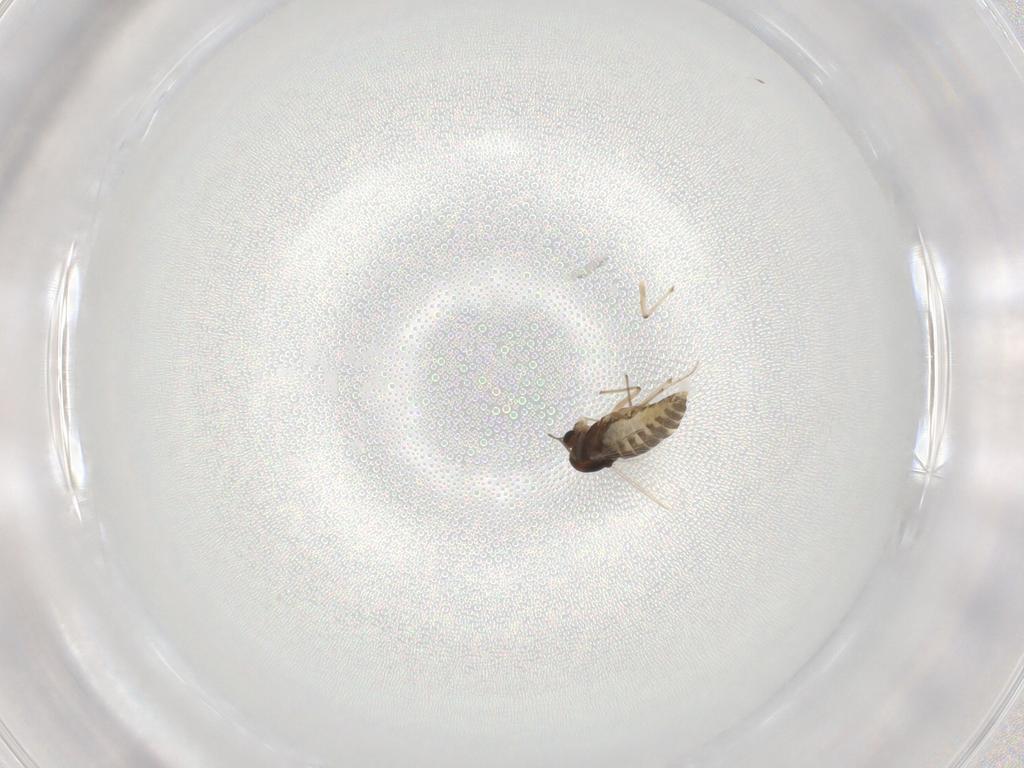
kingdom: Animalia
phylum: Arthropoda
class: Insecta
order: Diptera
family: Chironomidae
